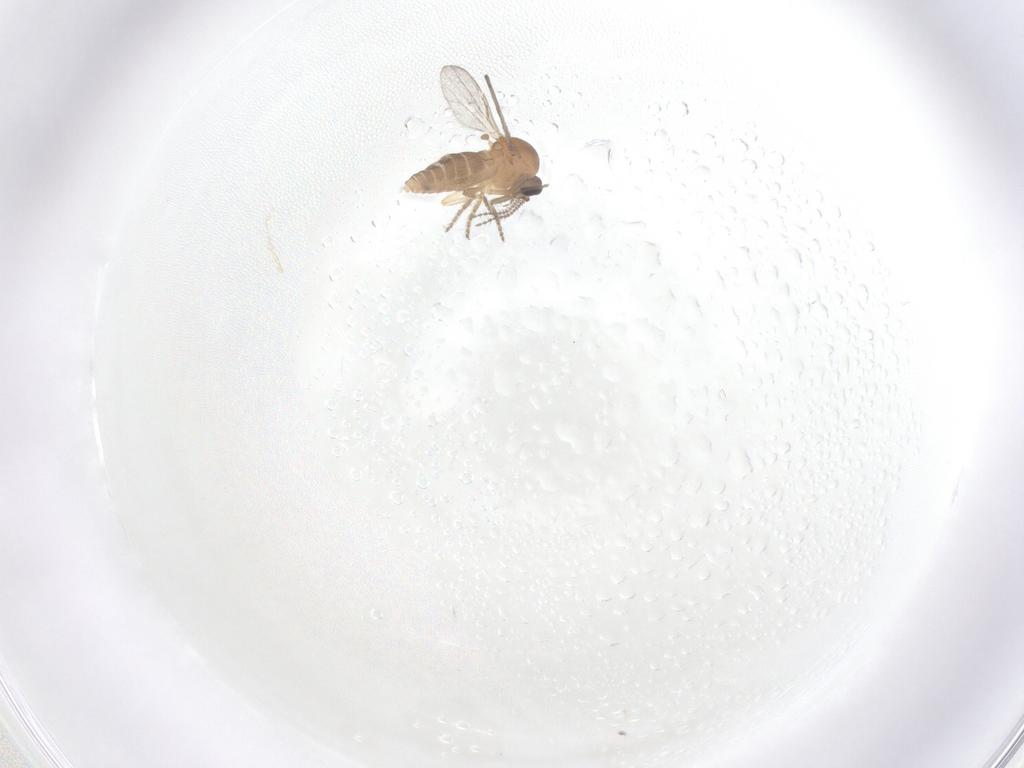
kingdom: Animalia
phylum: Arthropoda
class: Insecta
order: Diptera
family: Ceratopogonidae
